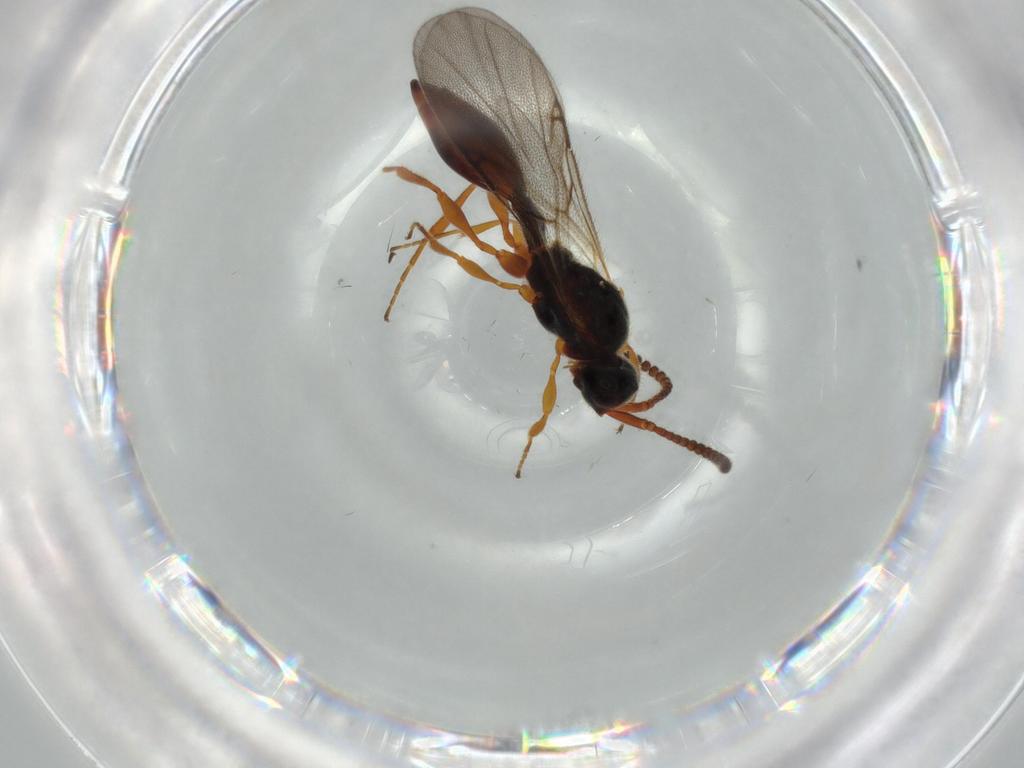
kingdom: Animalia
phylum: Arthropoda
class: Insecta
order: Hymenoptera
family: Diapriidae
